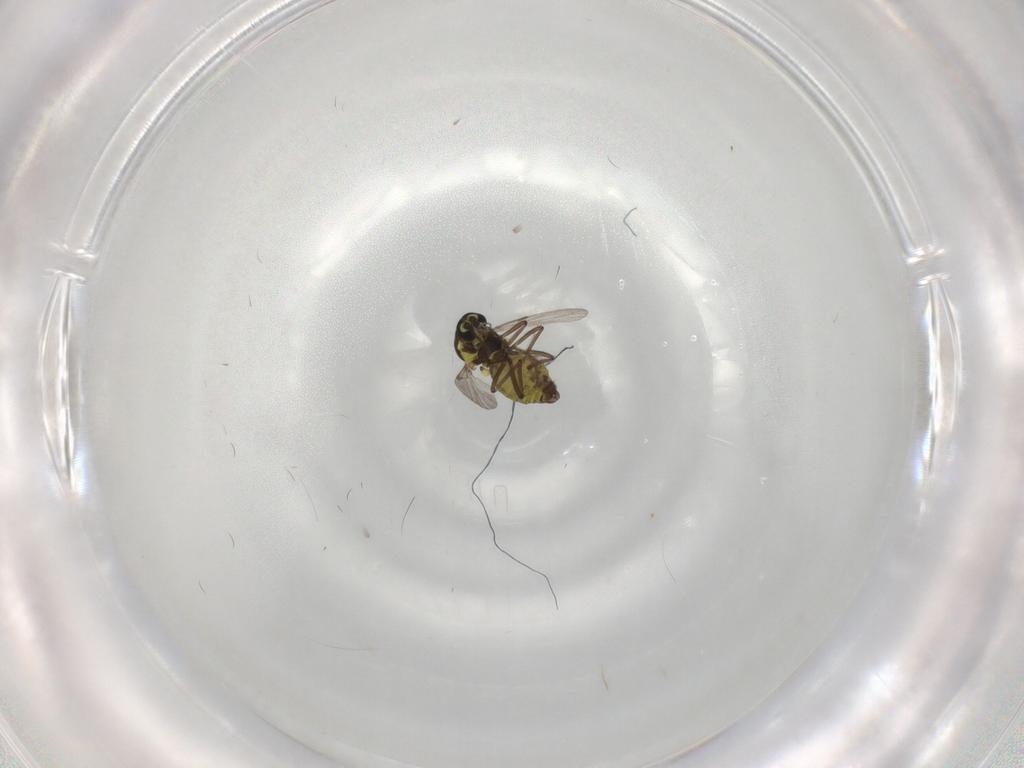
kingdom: Animalia
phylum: Arthropoda
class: Insecta
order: Diptera
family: Ceratopogonidae
